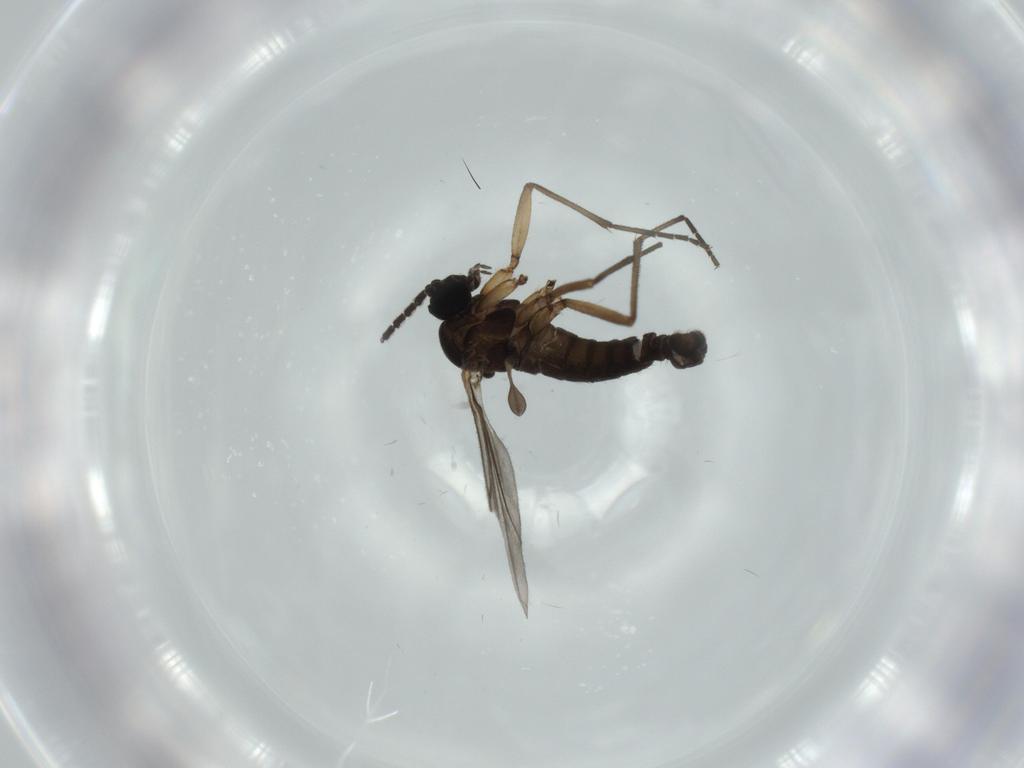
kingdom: Animalia
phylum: Arthropoda
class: Insecta
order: Diptera
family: Sciaridae
